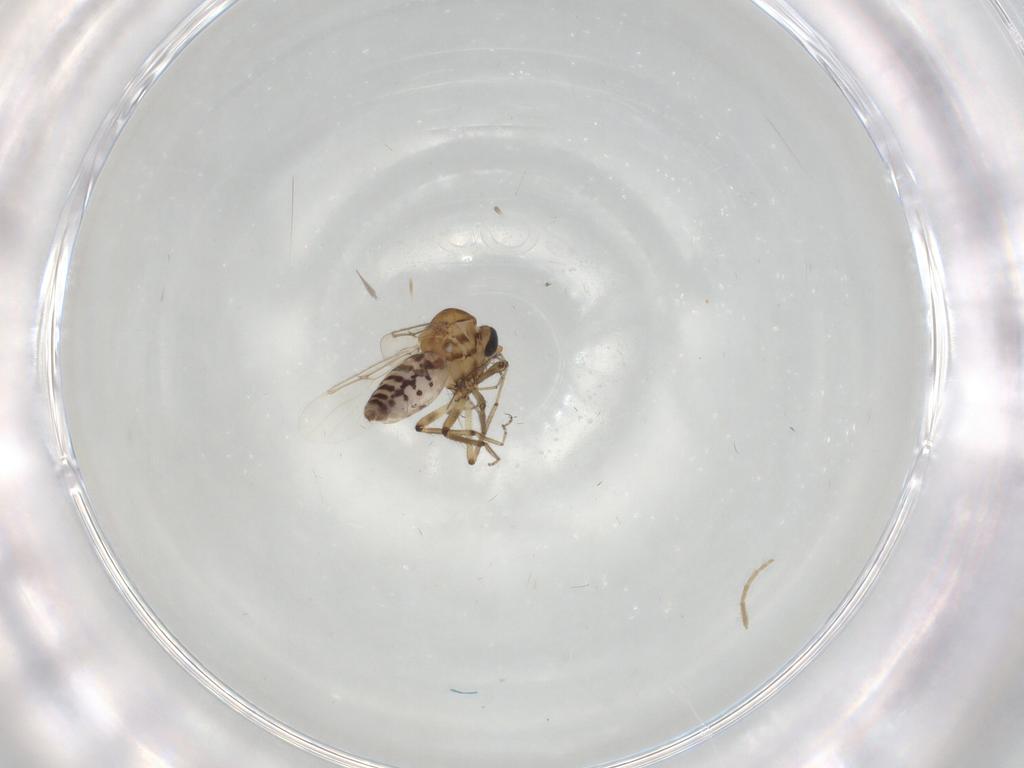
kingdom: Animalia
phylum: Arthropoda
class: Insecta
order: Diptera
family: Ceratopogonidae
